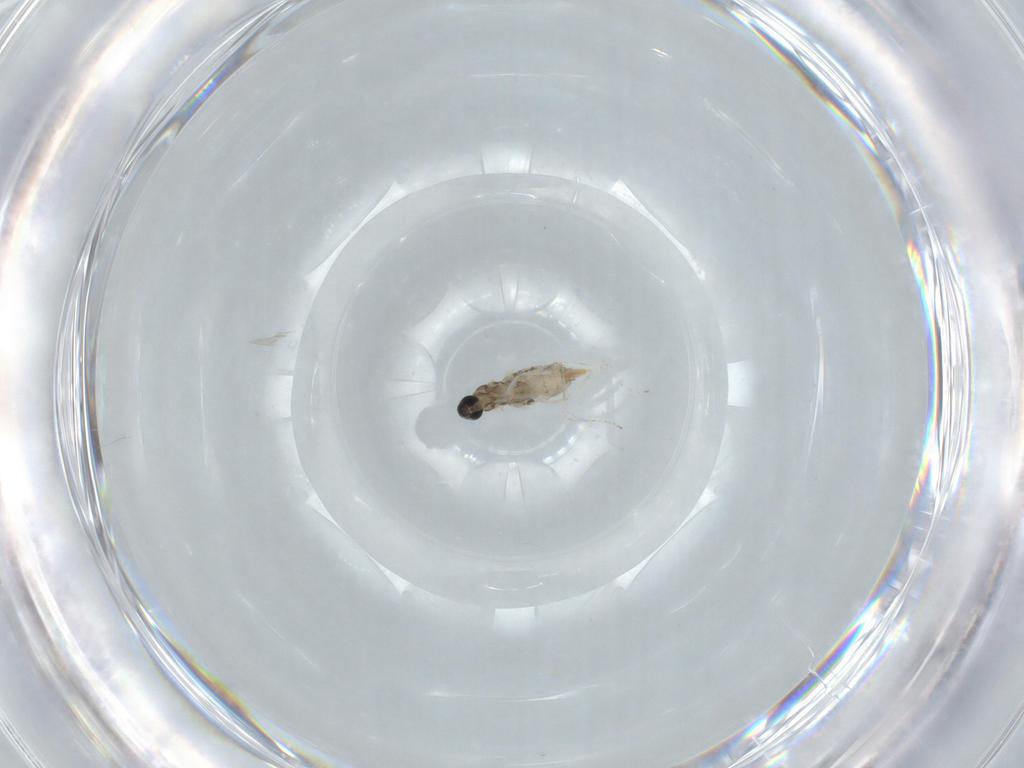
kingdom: Animalia
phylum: Arthropoda
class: Insecta
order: Diptera
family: Cecidomyiidae
